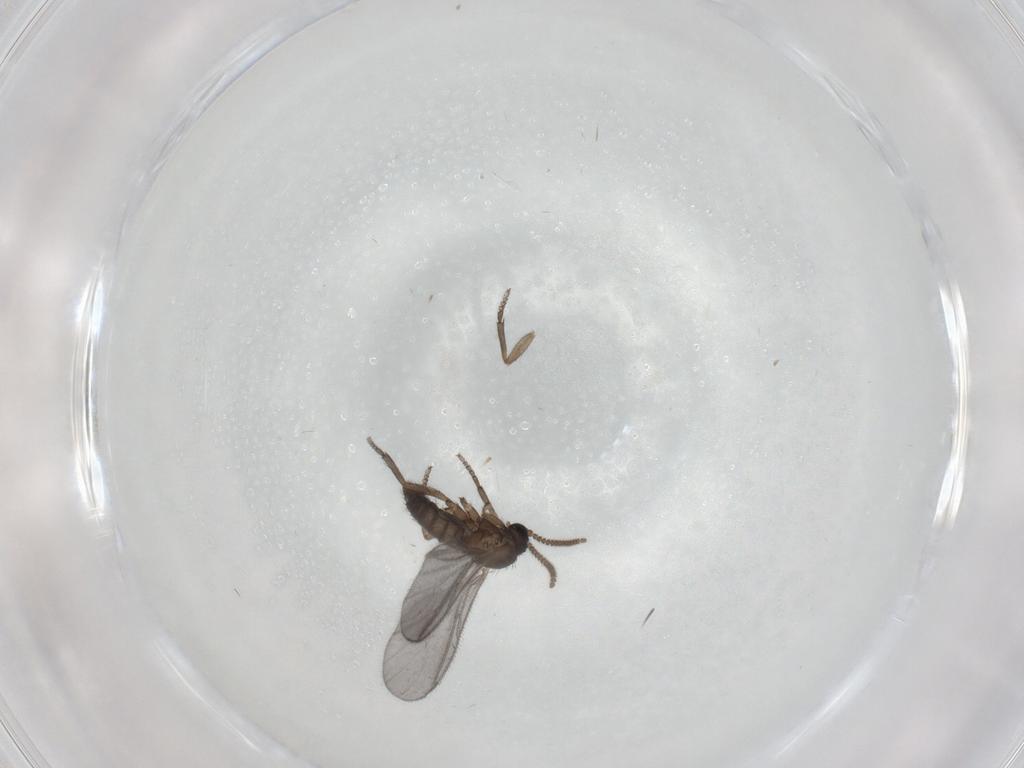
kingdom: Animalia
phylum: Arthropoda
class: Insecta
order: Diptera
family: Sciaridae
